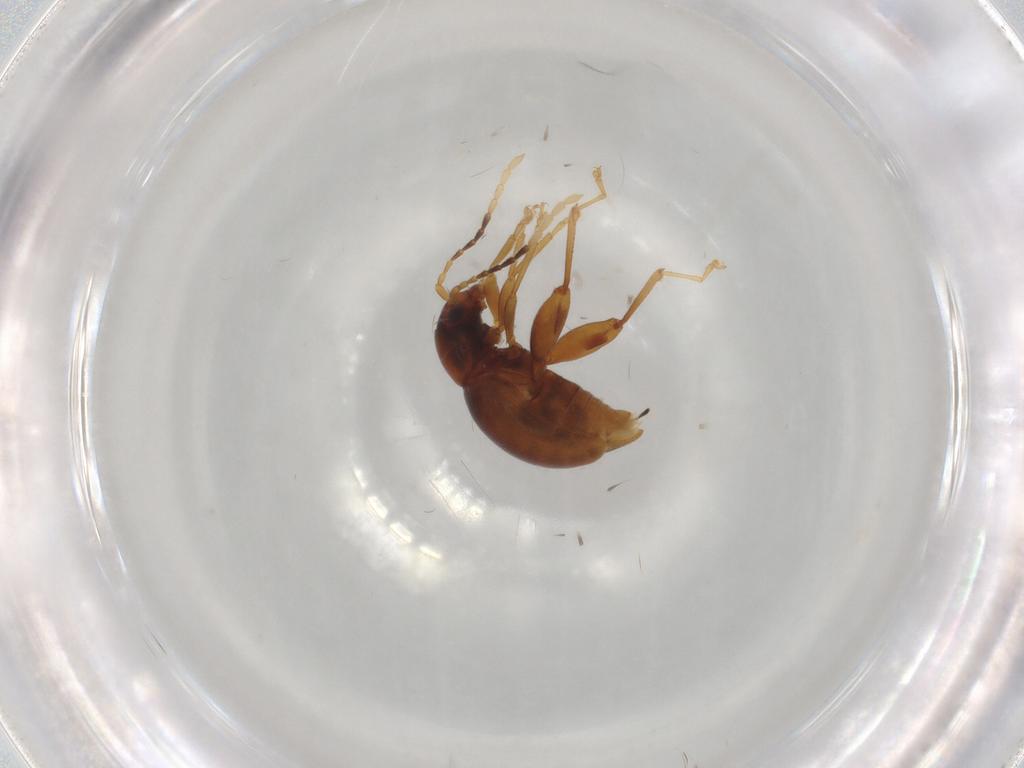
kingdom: Animalia
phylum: Arthropoda
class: Insecta
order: Coleoptera
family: Chrysomelidae
